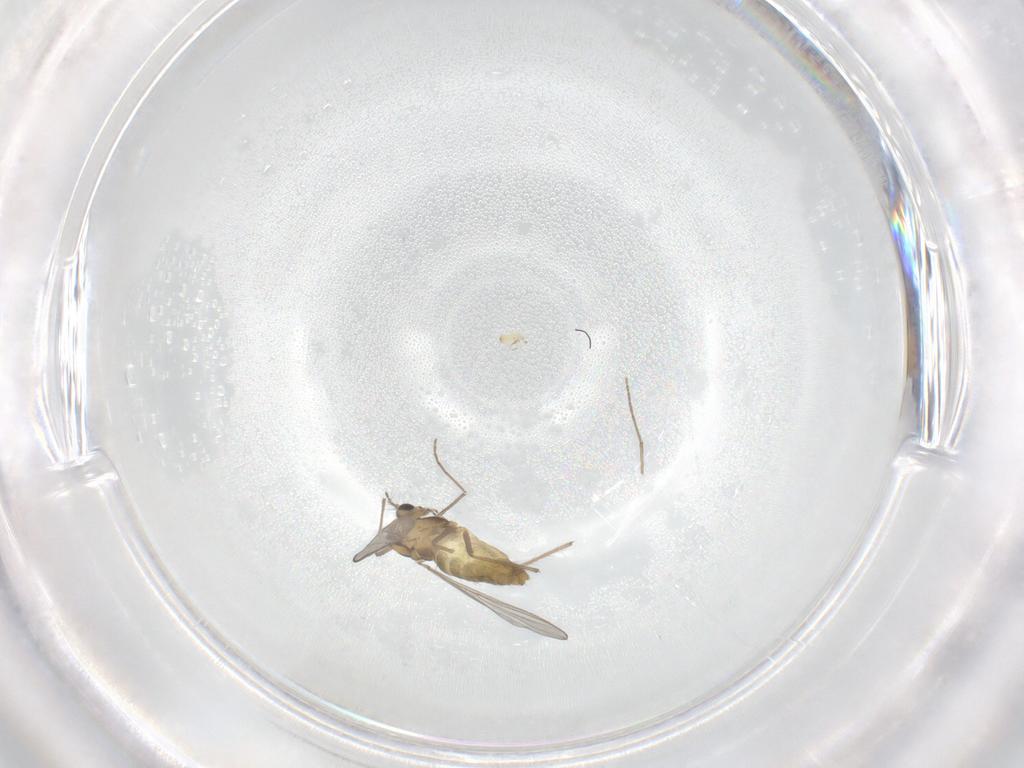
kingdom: Animalia
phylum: Arthropoda
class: Insecta
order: Diptera
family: Chironomidae
